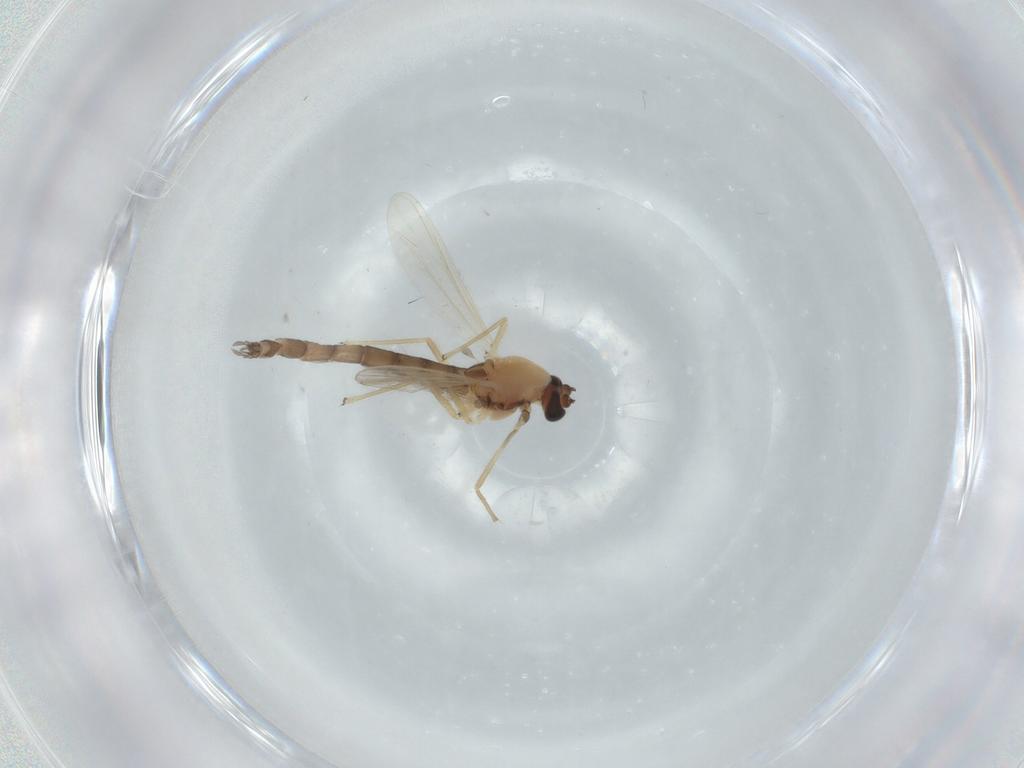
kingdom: Animalia
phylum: Arthropoda
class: Insecta
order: Diptera
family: Chironomidae
